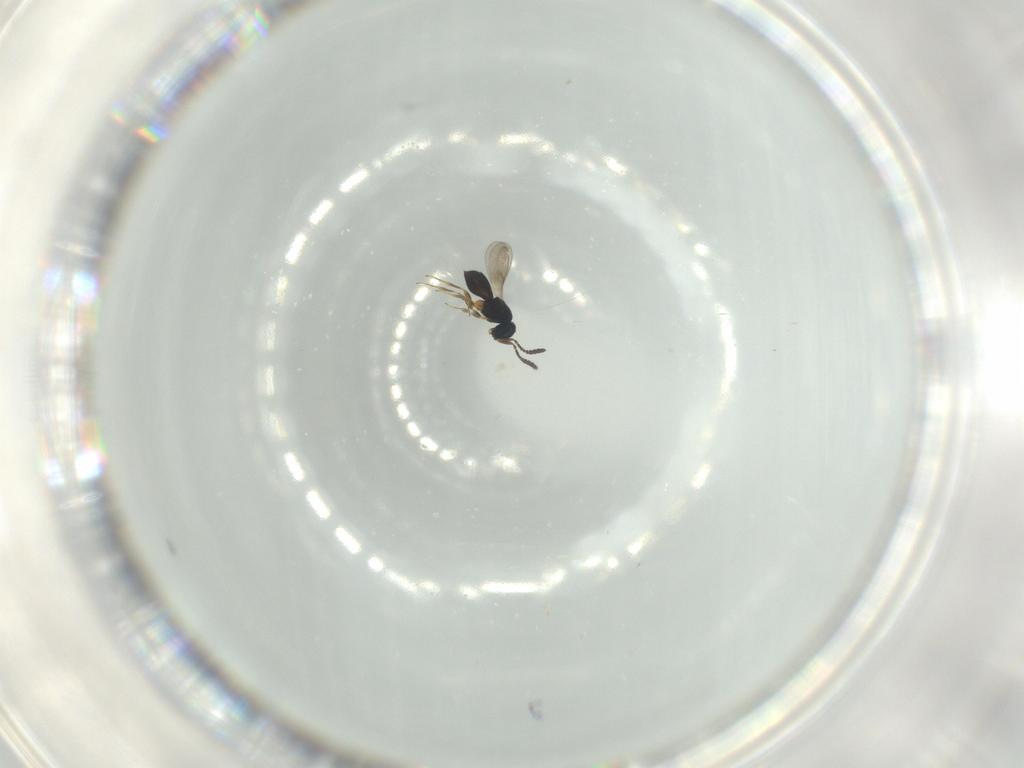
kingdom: Animalia
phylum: Arthropoda
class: Insecta
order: Hymenoptera
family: Scelionidae
